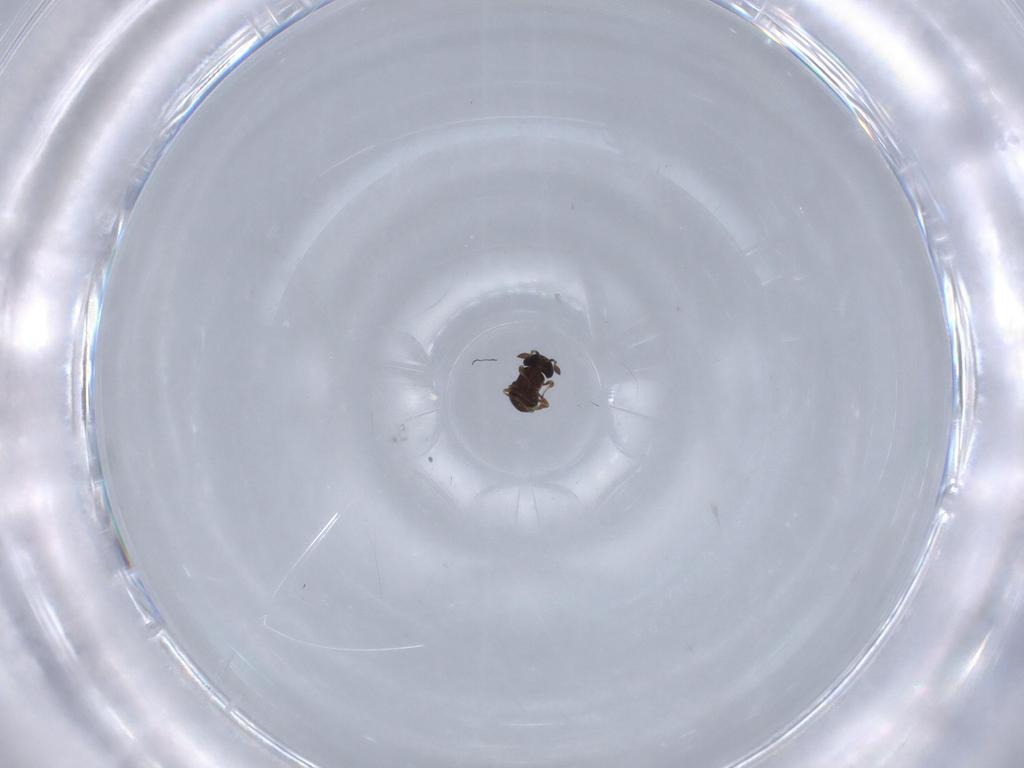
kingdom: Animalia
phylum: Arthropoda
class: Insecta
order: Hymenoptera
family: Scelionidae
